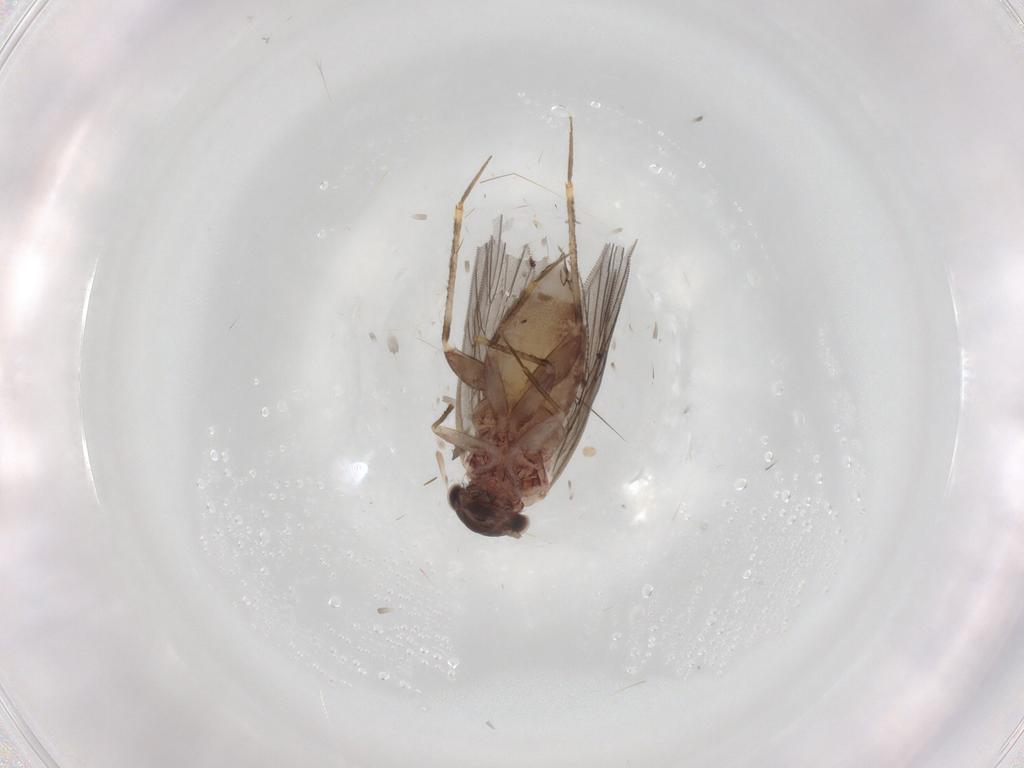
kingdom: Animalia
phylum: Arthropoda
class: Insecta
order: Psocodea
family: Lepidopsocidae
